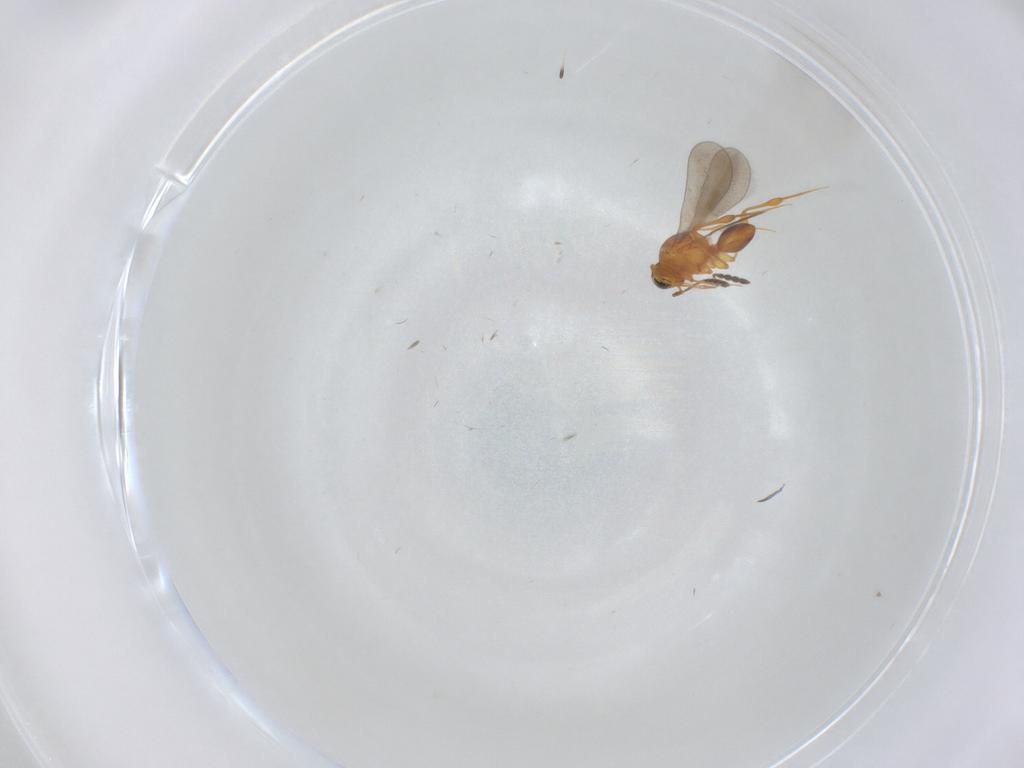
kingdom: Animalia
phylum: Arthropoda
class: Insecta
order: Hymenoptera
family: Platygastridae
